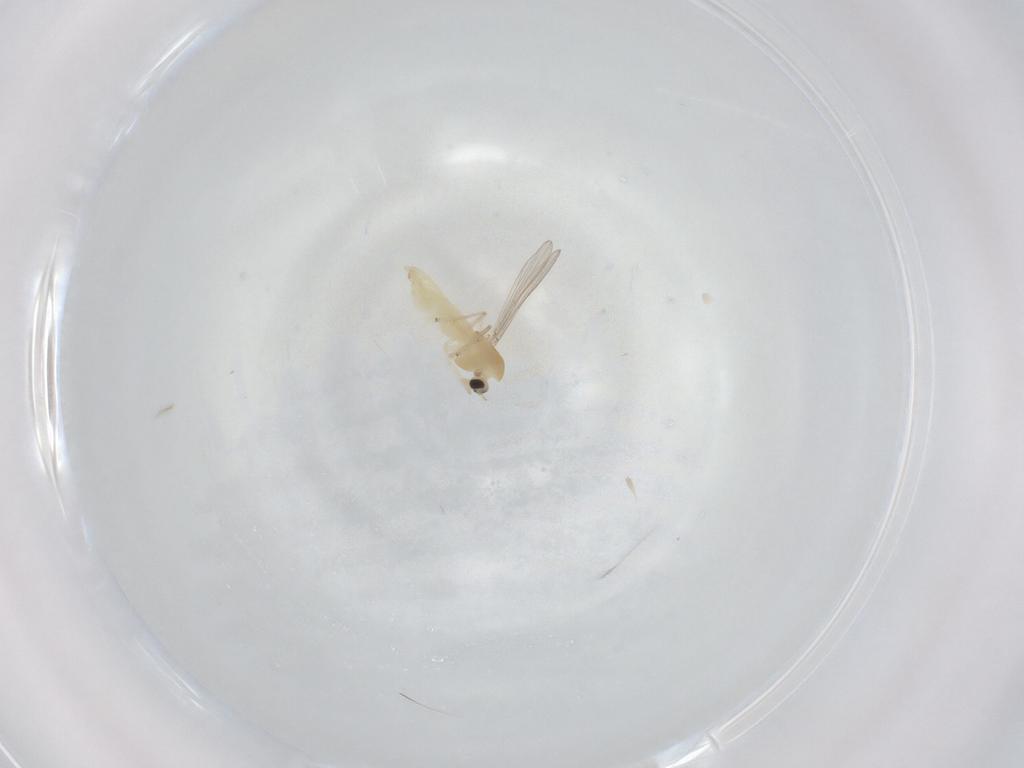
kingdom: Animalia
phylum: Arthropoda
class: Insecta
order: Diptera
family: Chironomidae
